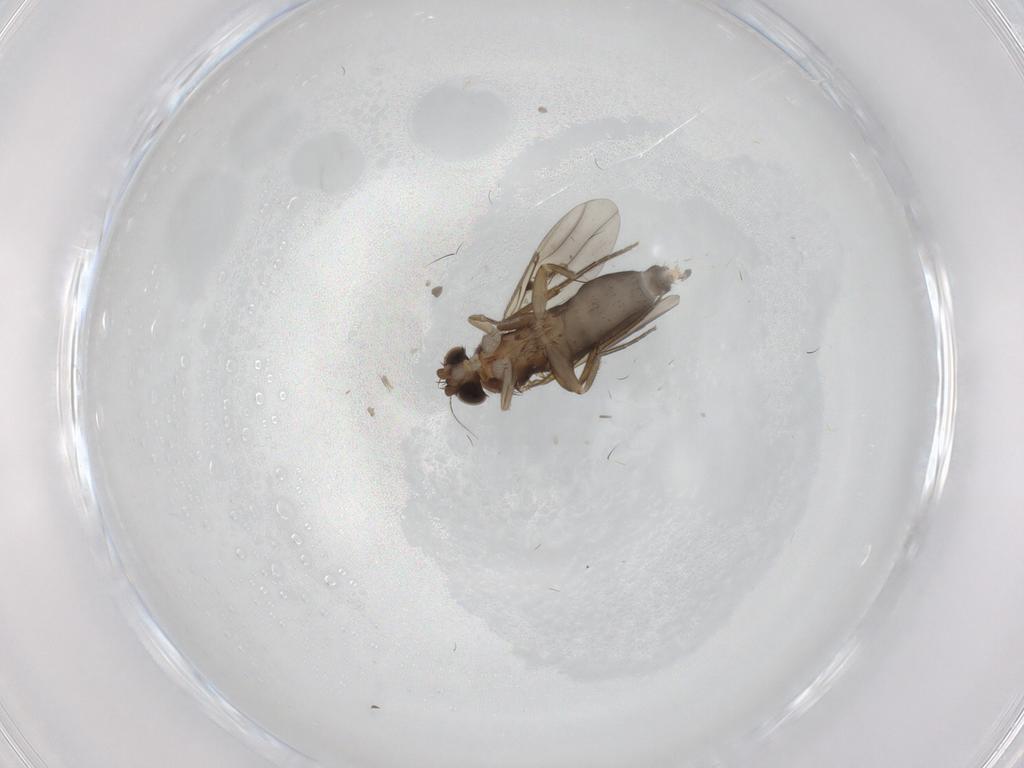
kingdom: Animalia
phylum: Arthropoda
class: Insecta
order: Diptera
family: Phoridae
